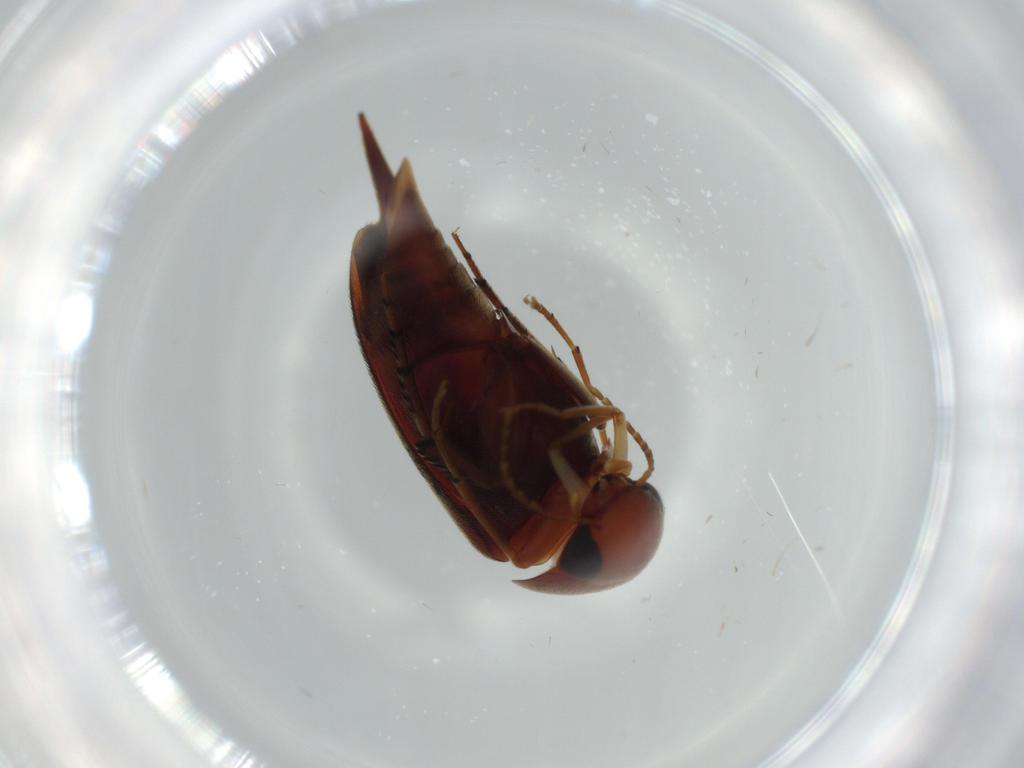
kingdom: Animalia
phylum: Arthropoda
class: Insecta
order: Coleoptera
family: Mordellidae
